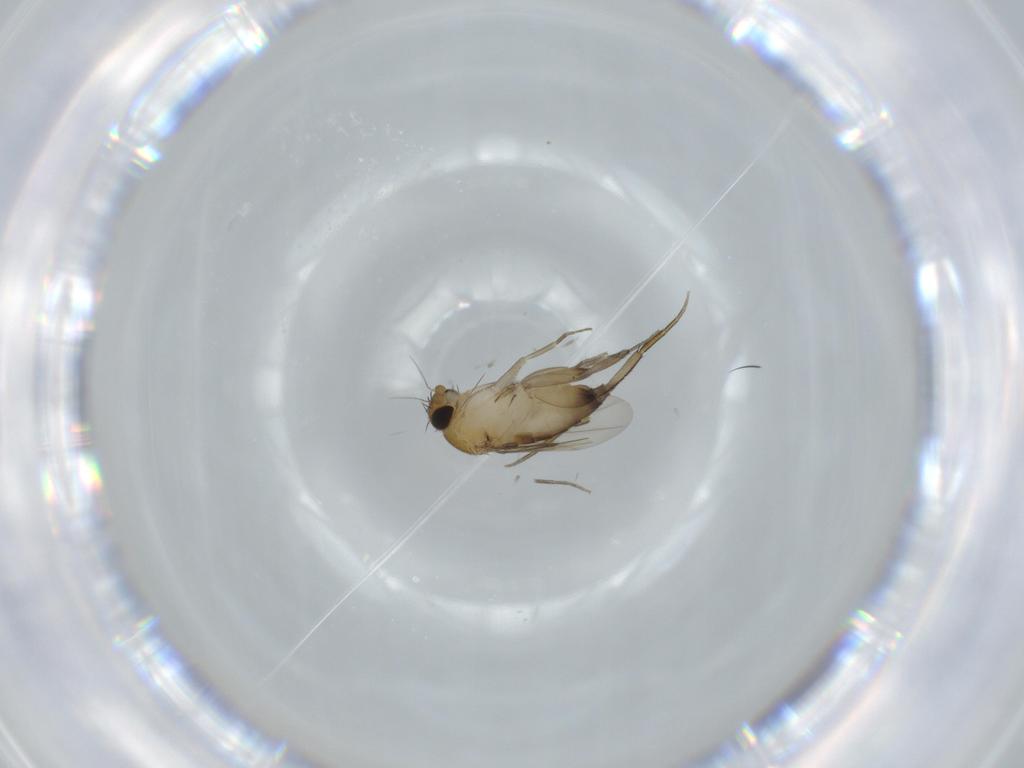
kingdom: Animalia
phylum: Arthropoda
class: Insecta
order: Diptera
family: Phoridae
